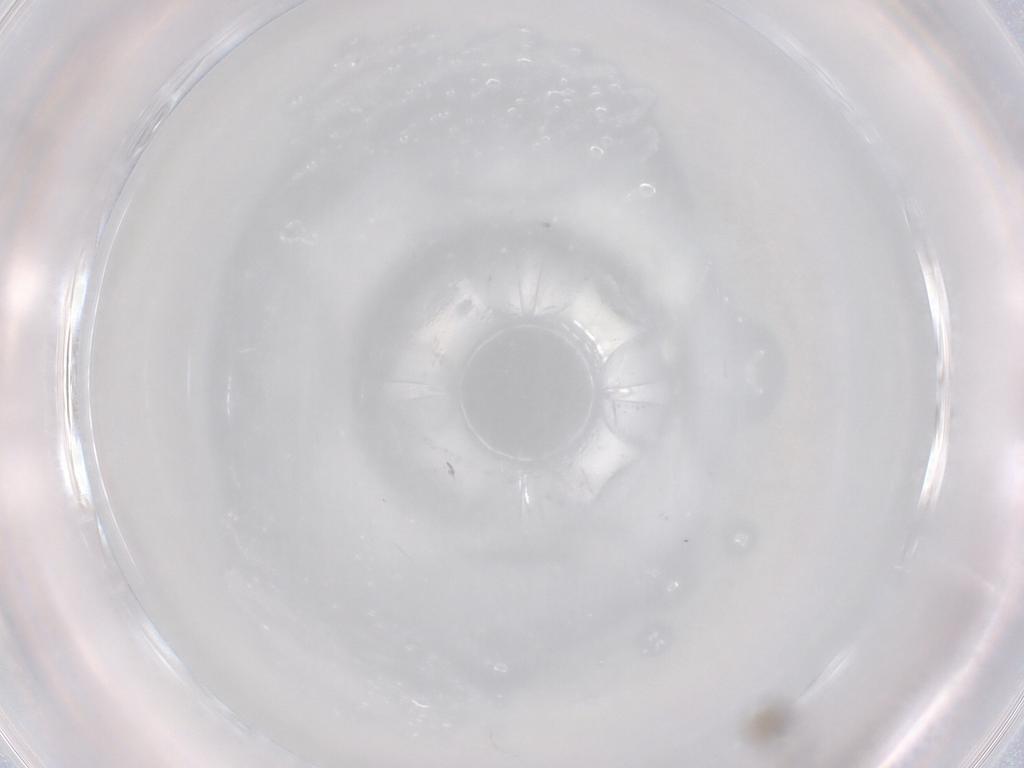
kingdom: Animalia
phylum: Arthropoda
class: Insecta
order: Hymenoptera
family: Aphelinidae
